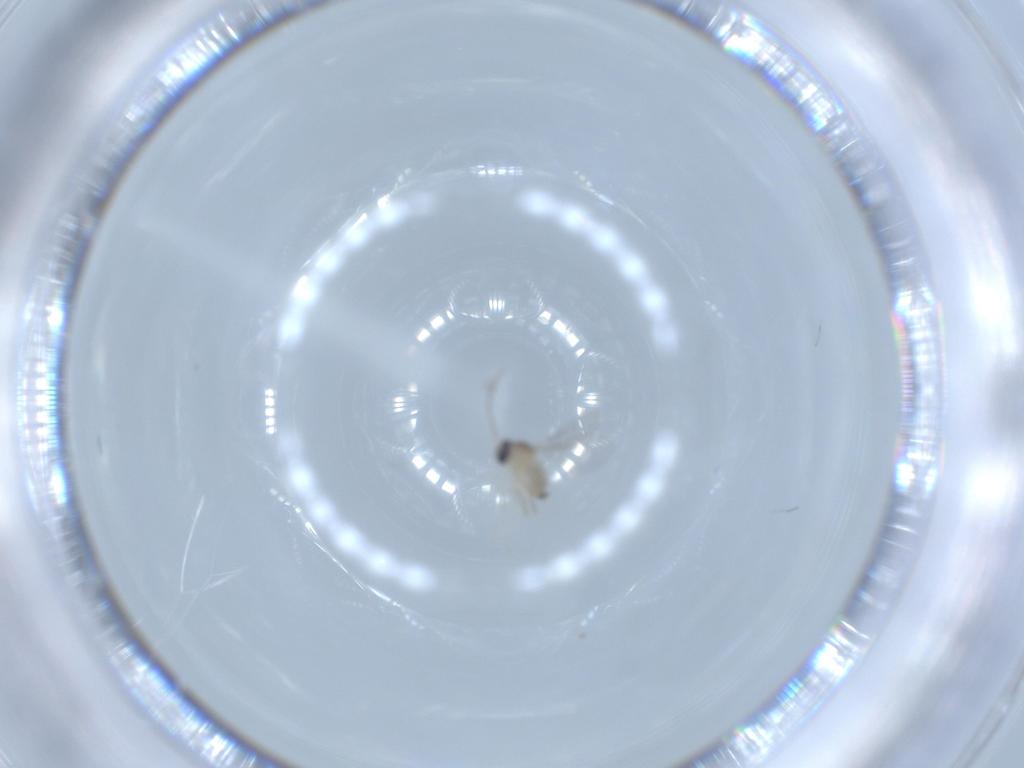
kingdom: Animalia
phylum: Arthropoda
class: Insecta
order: Diptera
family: Cecidomyiidae
